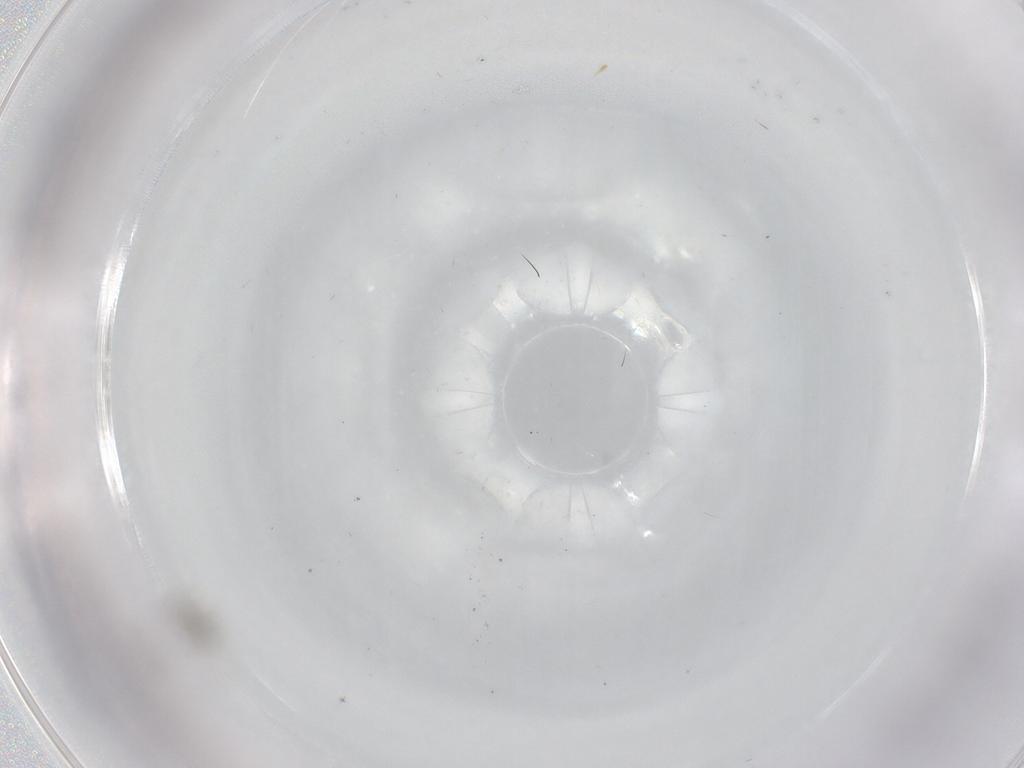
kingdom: Animalia
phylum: Arthropoda
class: Insecta
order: Diptera
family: Cecidomyiidae
